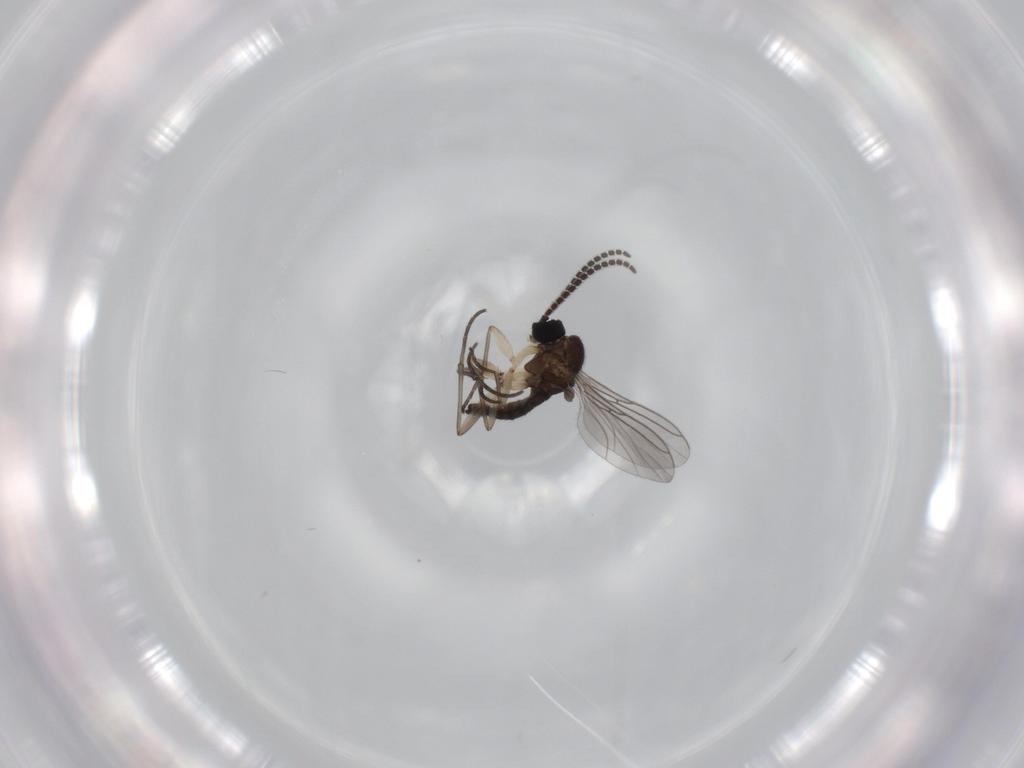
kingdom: Animalia
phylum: Arthropoda
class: Insecta
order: Diptera
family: Sciaridae
